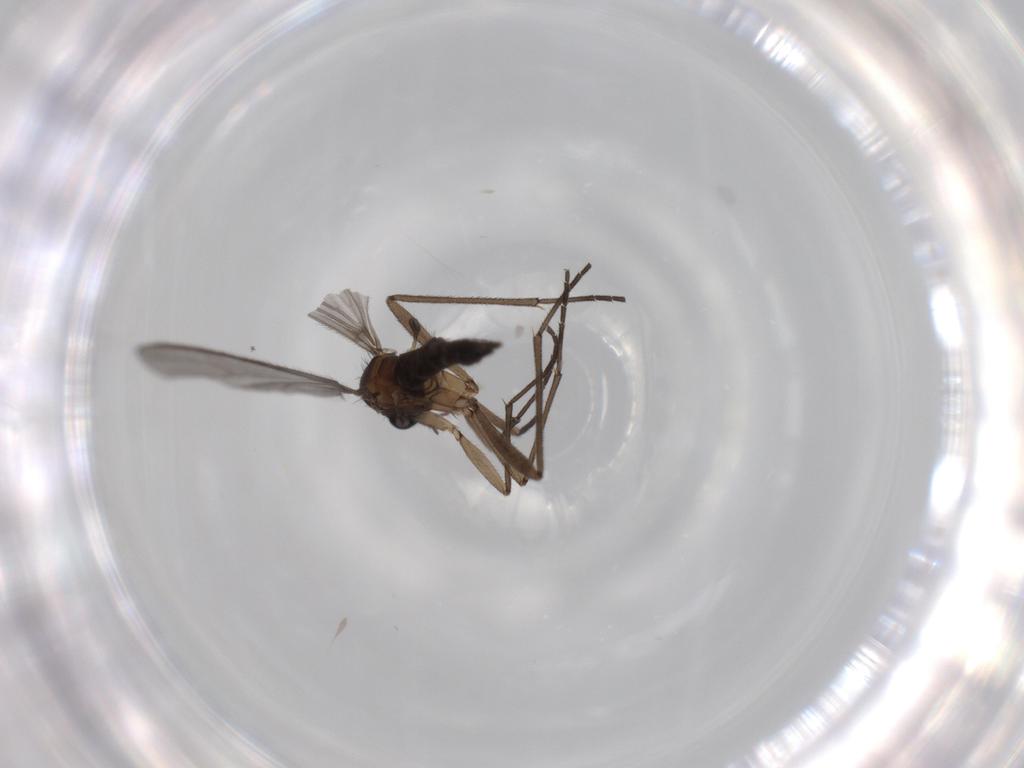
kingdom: Animalia
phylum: Arthropoda
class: Insecta
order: Diptera
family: Sciaridae
